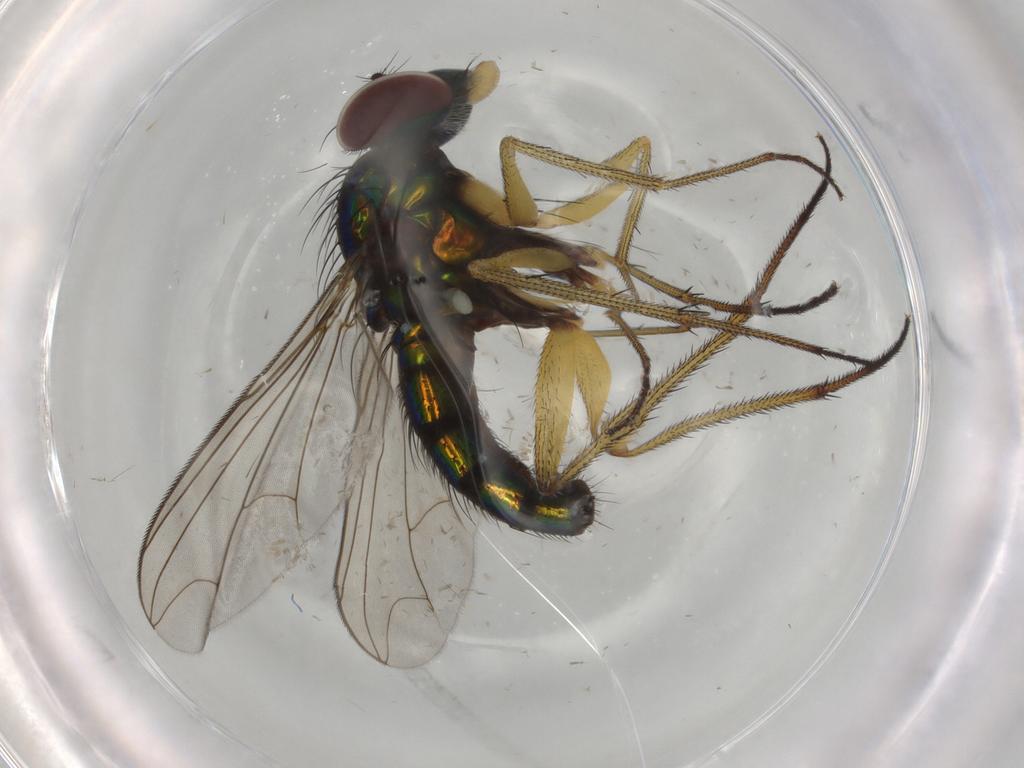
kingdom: Animalia
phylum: Arthropoda
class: Insecta
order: Diptera
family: Dolichopodidae
